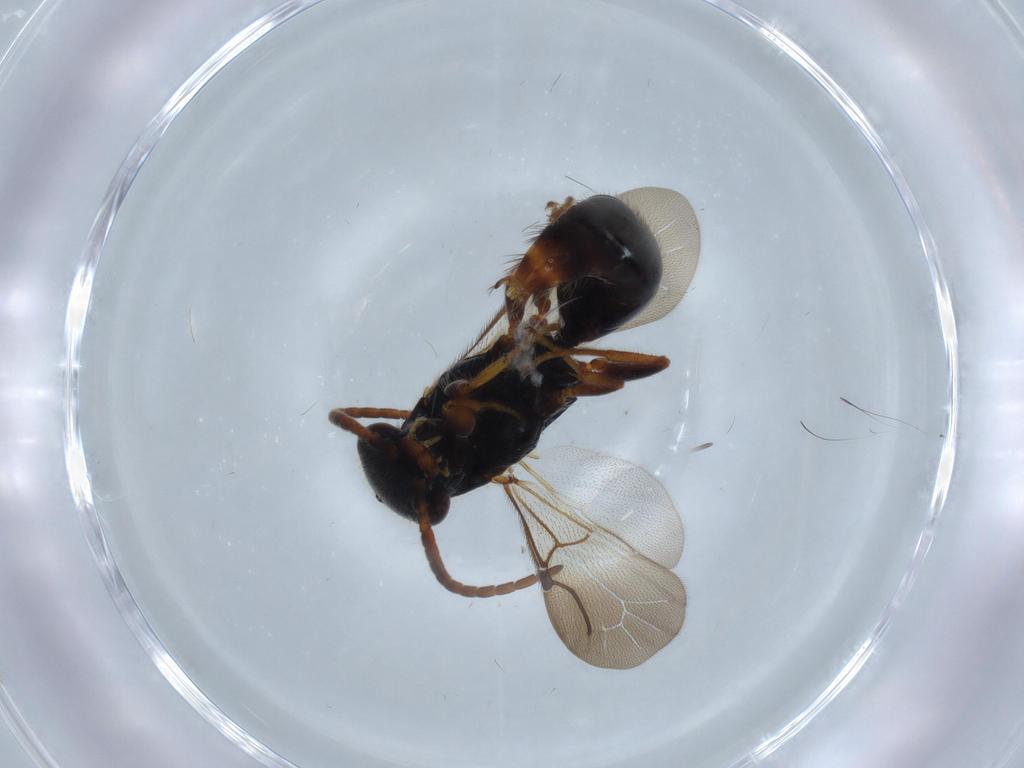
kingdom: Animalia
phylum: Arthropoda
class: Insecta
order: Hymenoptera
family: Bethylidae
